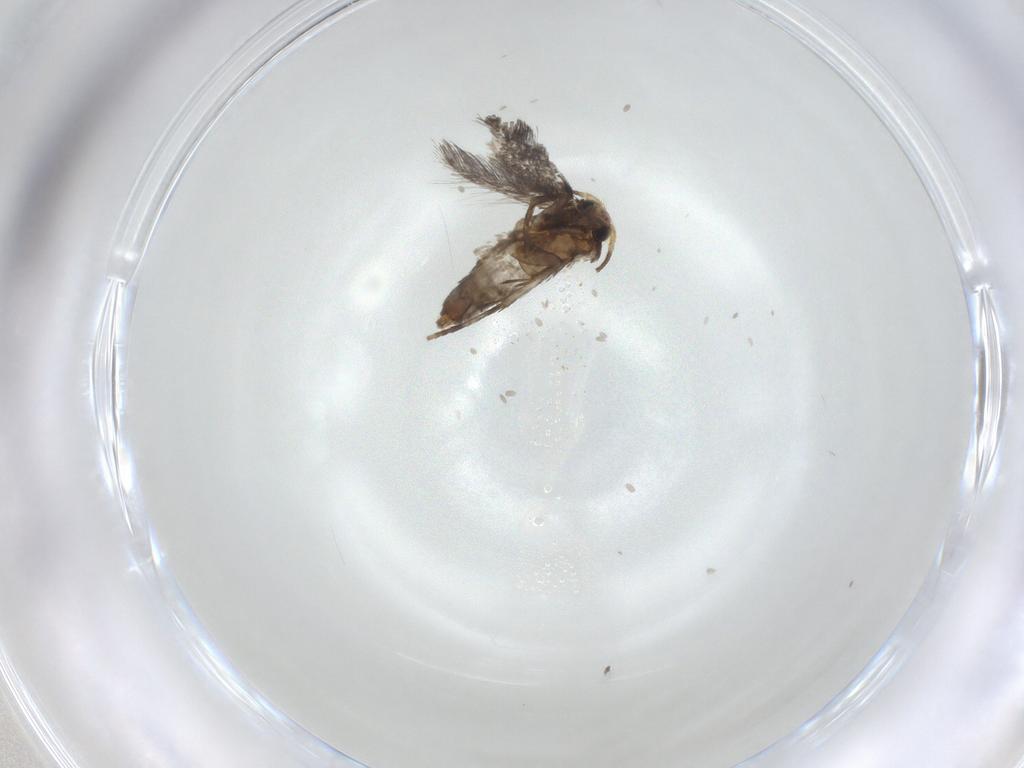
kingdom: Animalia
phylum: Arthropoda
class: Insecta
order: Lepidoptera
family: Nepticulidae
